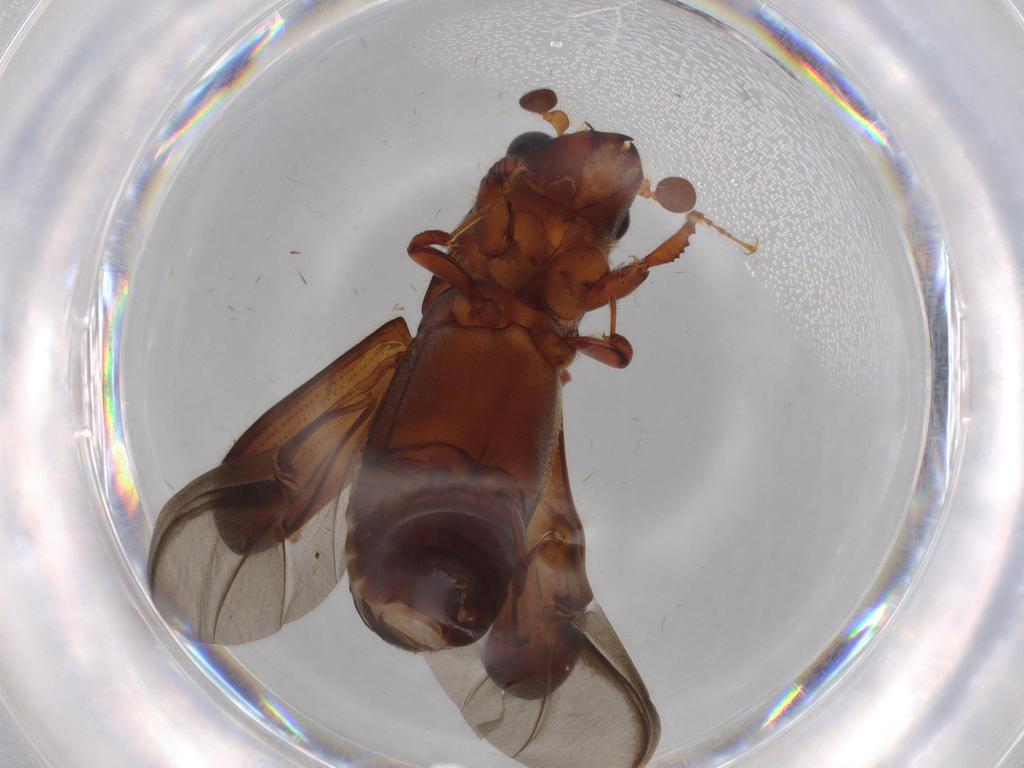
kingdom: Animalia
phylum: Arthropoda
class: Insecta
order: Coleoptera
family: Curculionidae
